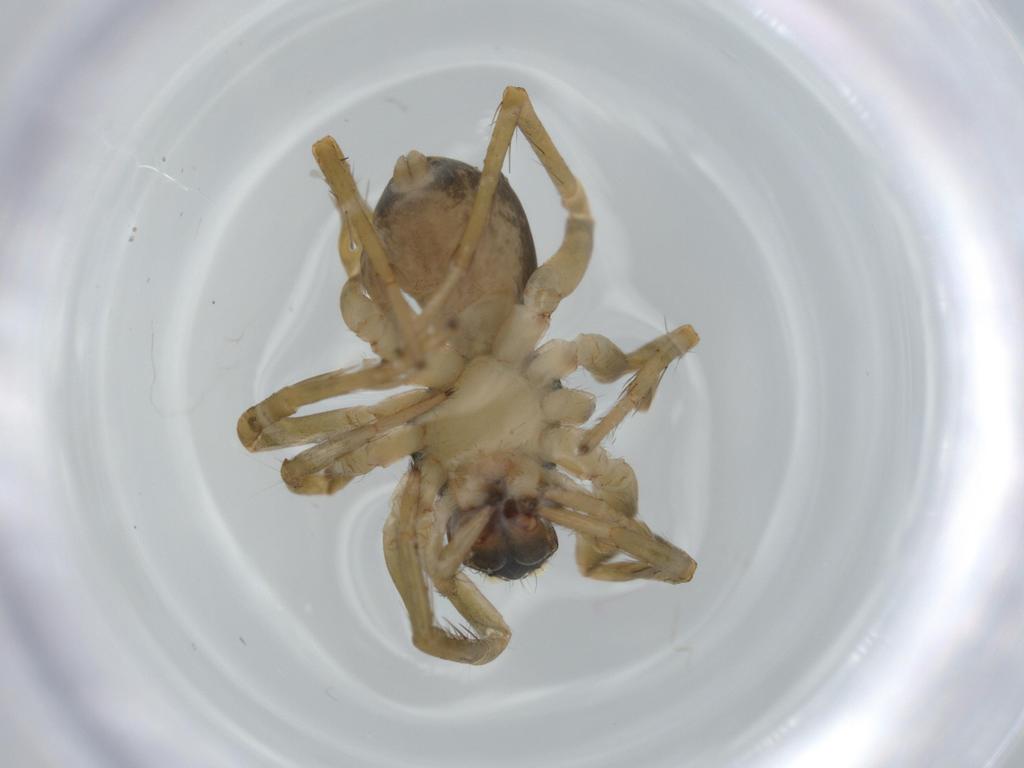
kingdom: Animalia
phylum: Arthropoda
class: Arachnida
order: Araneae
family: Lycosidae
